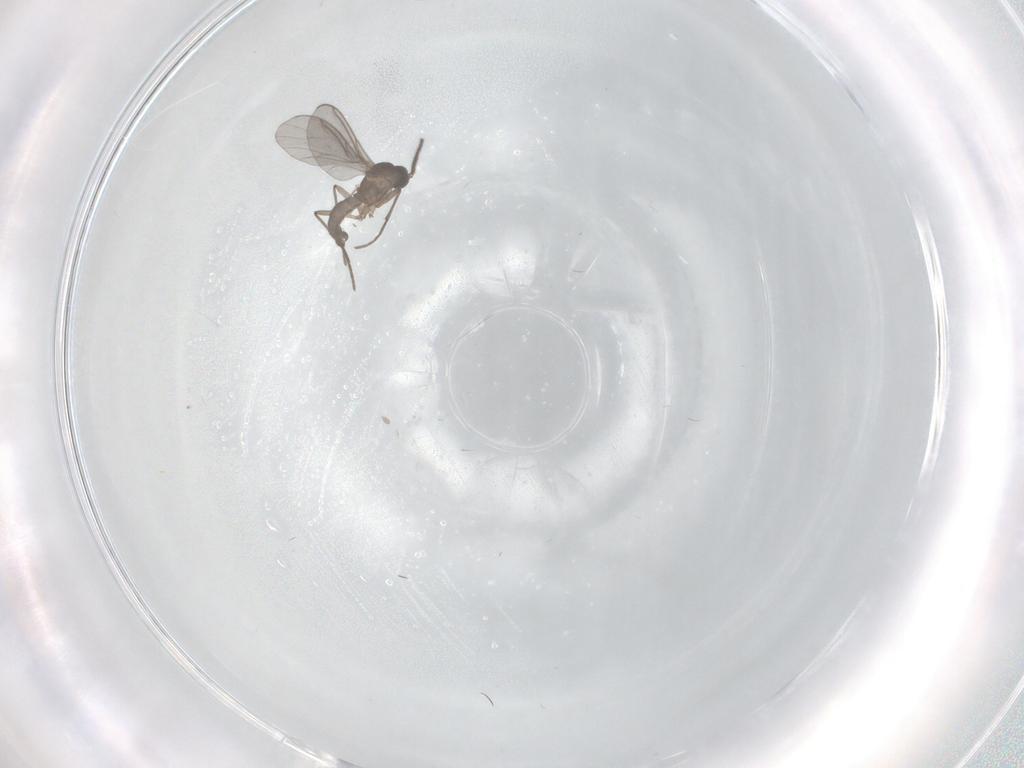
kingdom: Animalia
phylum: Arthropoda
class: Insecta
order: Diptera
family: Sciaridae
